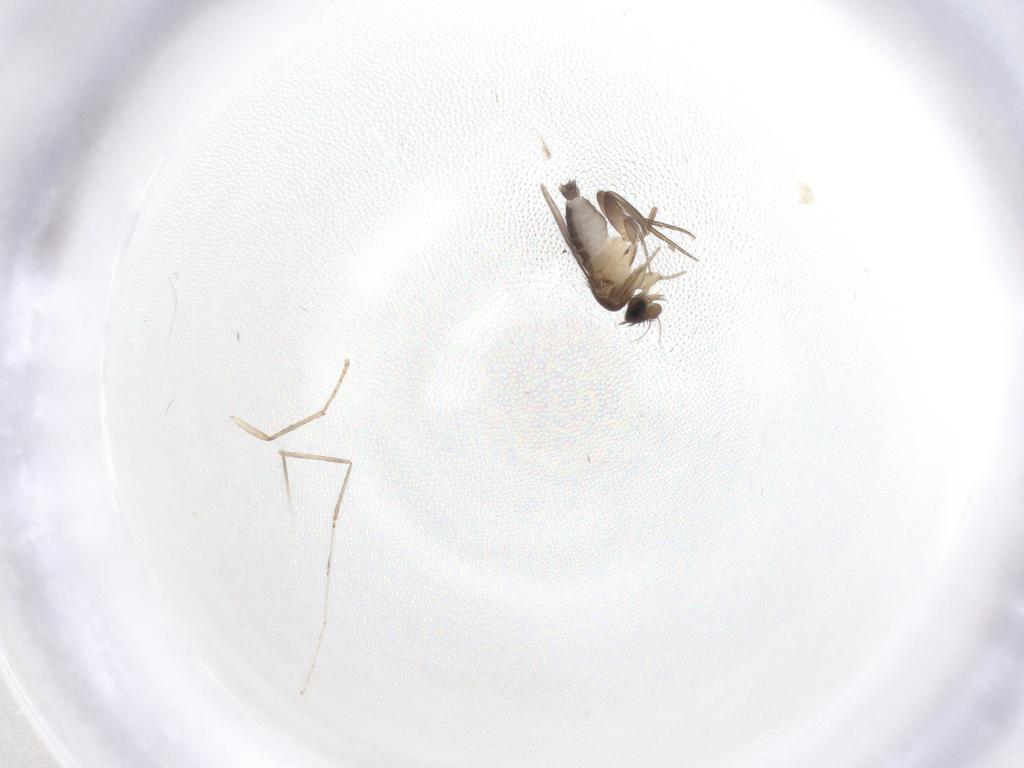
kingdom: Animalia
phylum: Arthropoda
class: Insecta
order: Diptera
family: Phoridae
